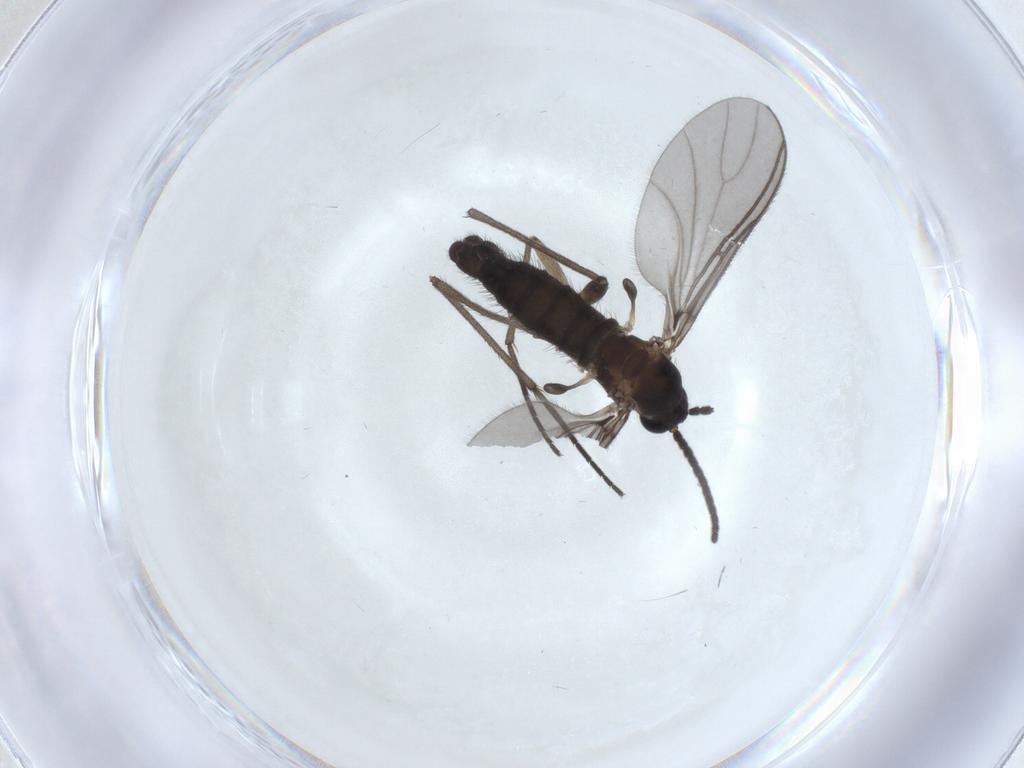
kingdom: Animalia
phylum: Arthropoda
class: Insecta
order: Diptera
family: Sciaridae
